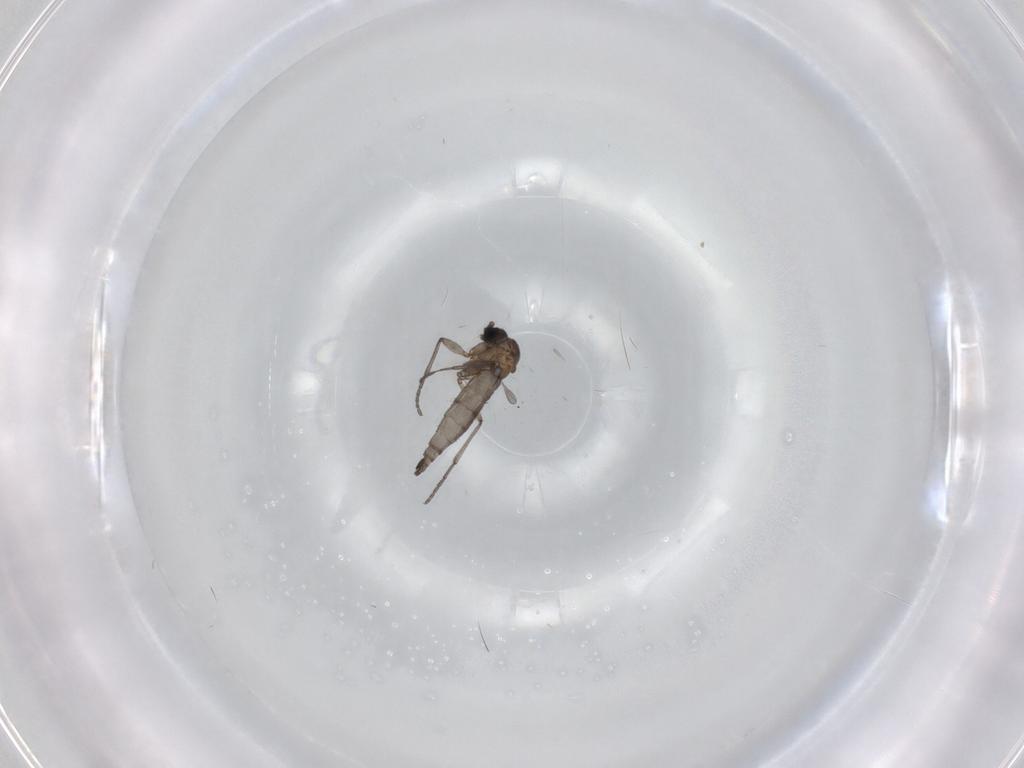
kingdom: Animalia
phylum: Arthropoda
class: Insecta
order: Diptera
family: Sciaridae
